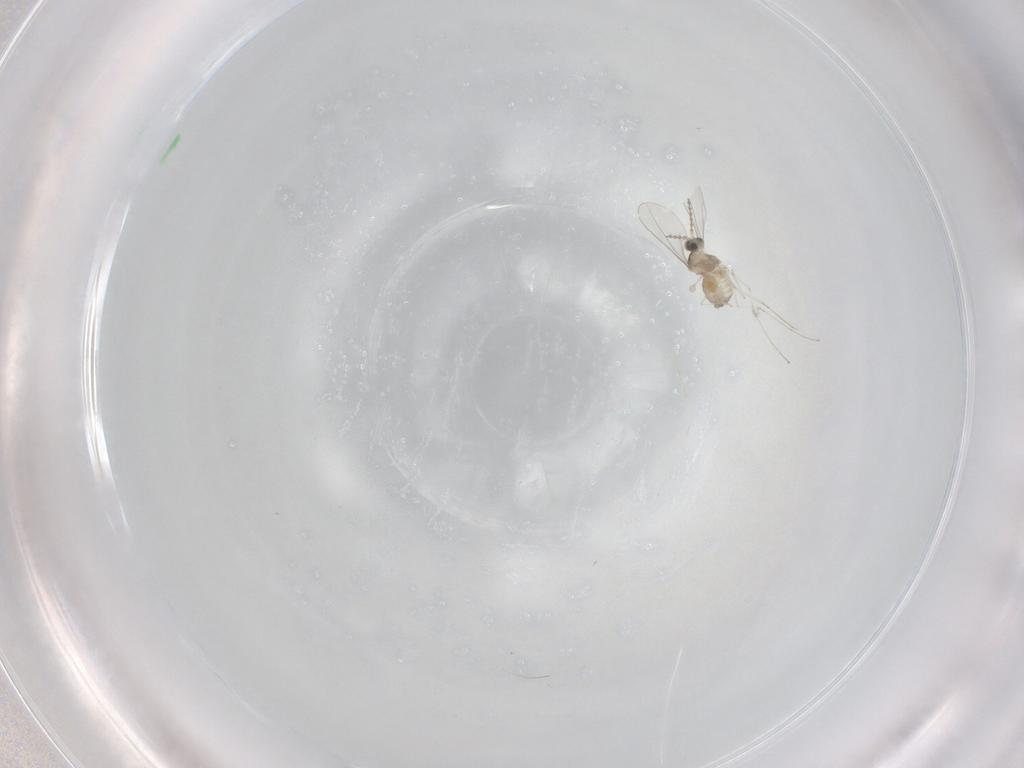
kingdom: Animalia
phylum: Arthropoda
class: Insecta
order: Diptera
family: Cecidomyiidae
